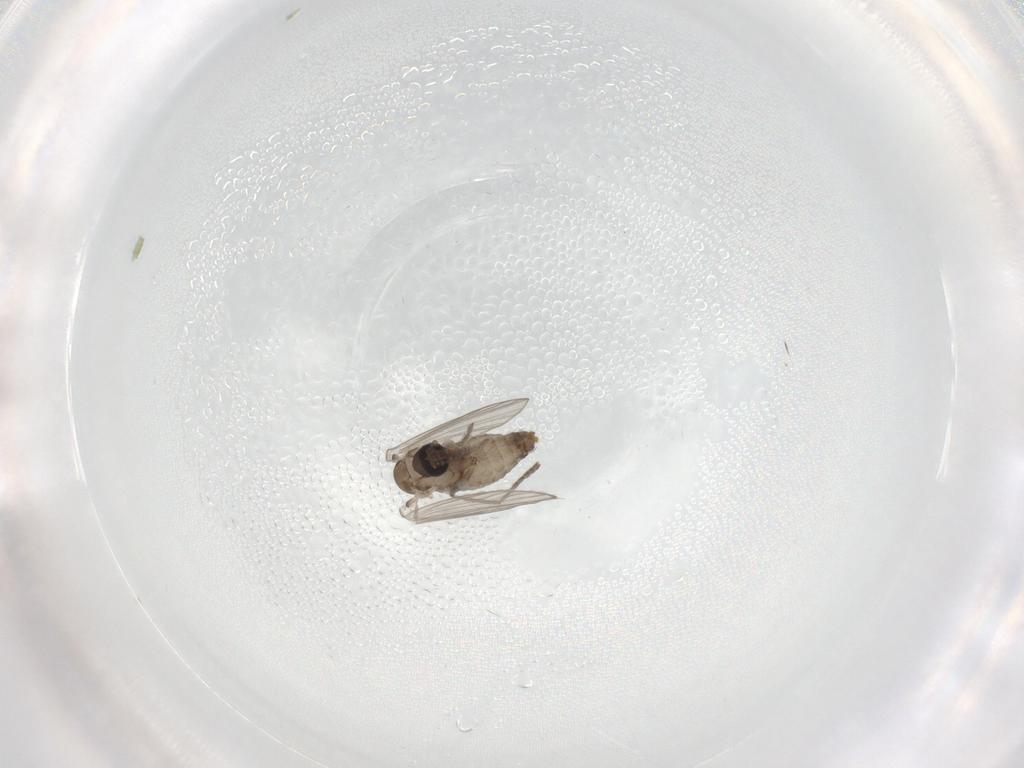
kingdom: Animalia
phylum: Arthropoda
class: Insecta
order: Diptera
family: Psychodidae
